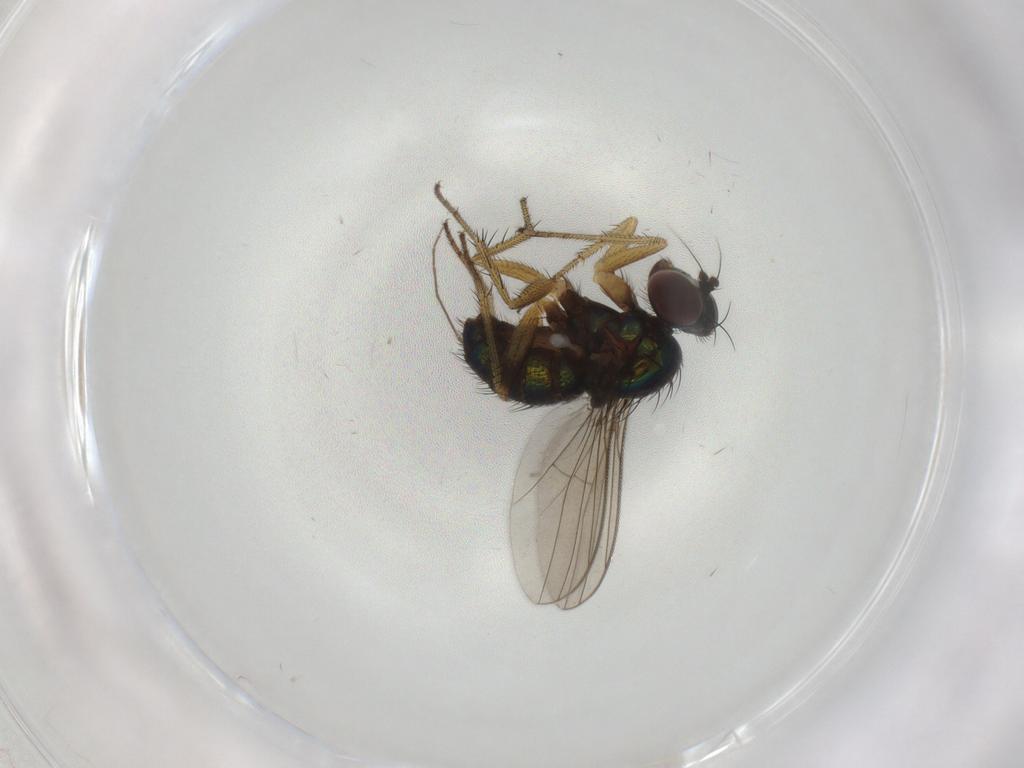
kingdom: Animalia
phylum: Arthropoda
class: Insecta
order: Diptera
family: Dolichopodidae
